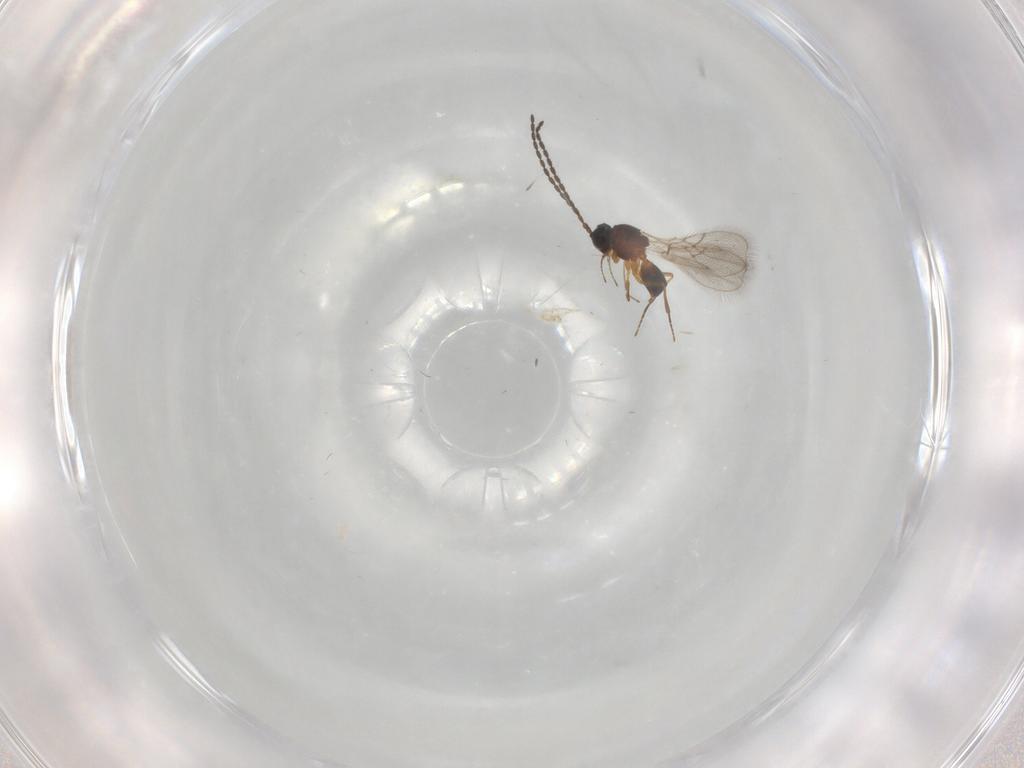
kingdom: Animalia
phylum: Arthropoda
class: Insecta
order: Hymenoptera
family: Figitidae
